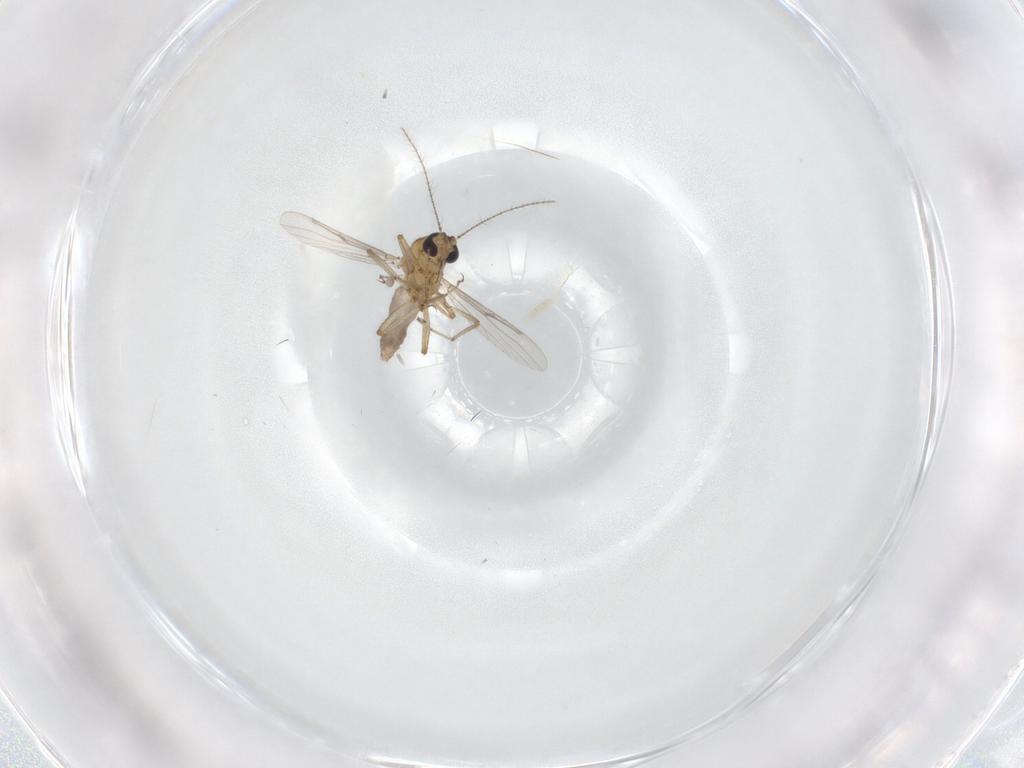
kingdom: Animalia
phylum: Arthropoda
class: Insecta
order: Diptera
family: Ceratopogonidae
